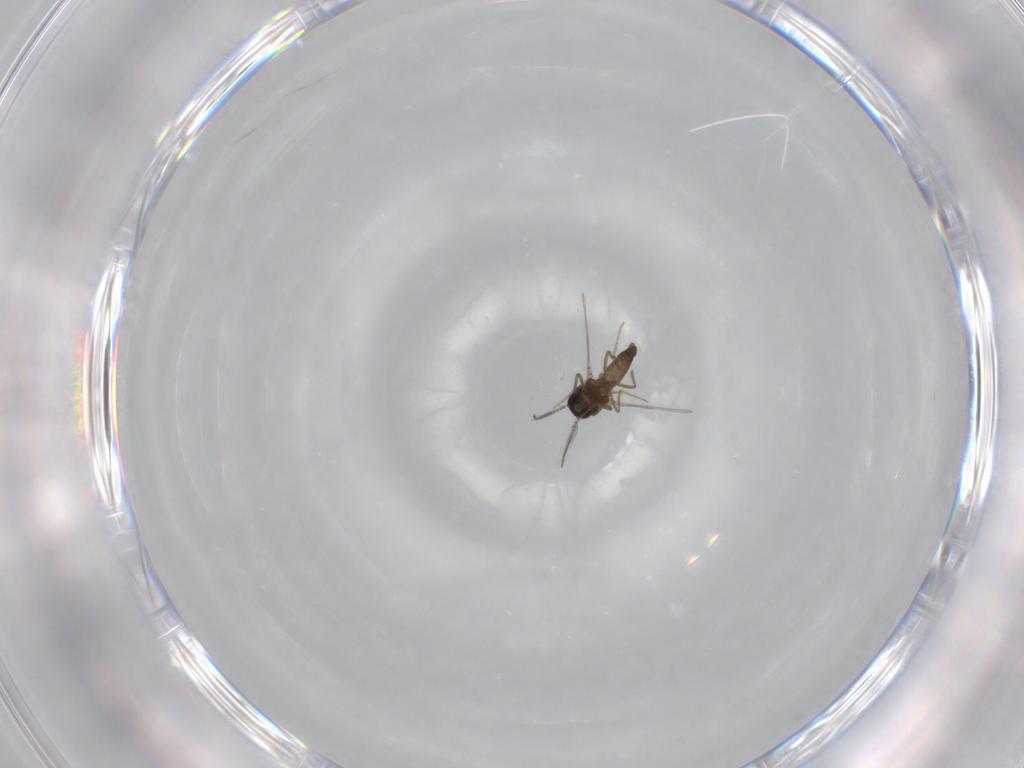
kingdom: Animalia
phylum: Arthropoda
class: Insecta
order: Diptera
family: Ceratopogonidae
